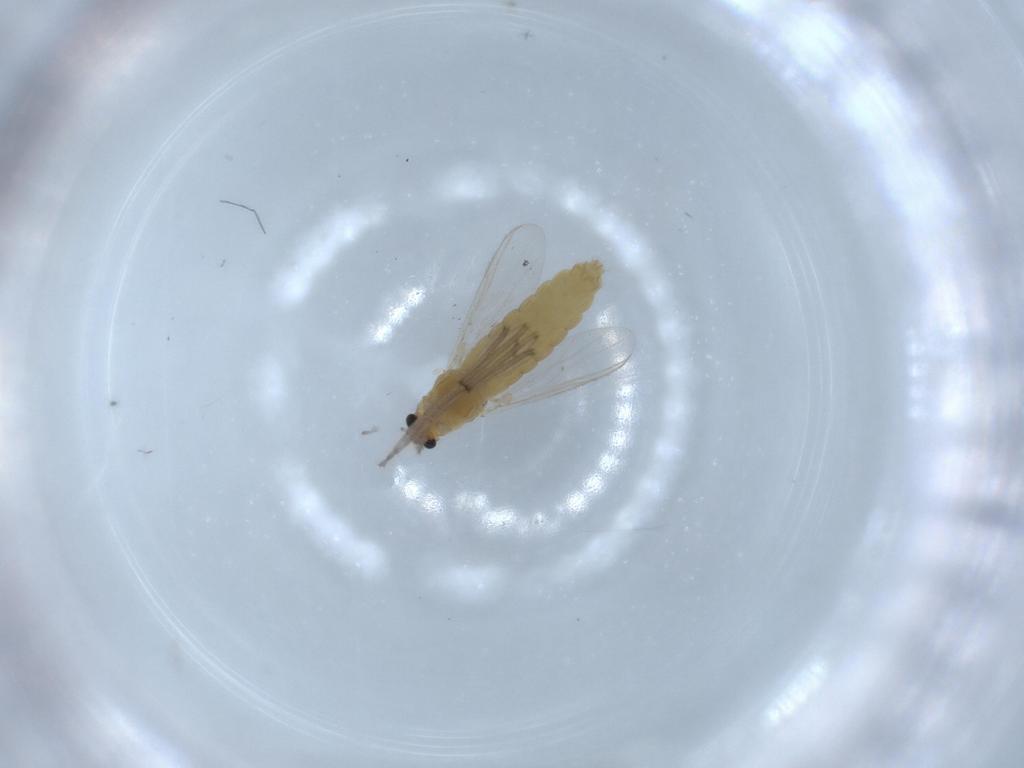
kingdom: Animalia
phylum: Arthropoda
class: Insecta
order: Diptera
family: Chironomidae
